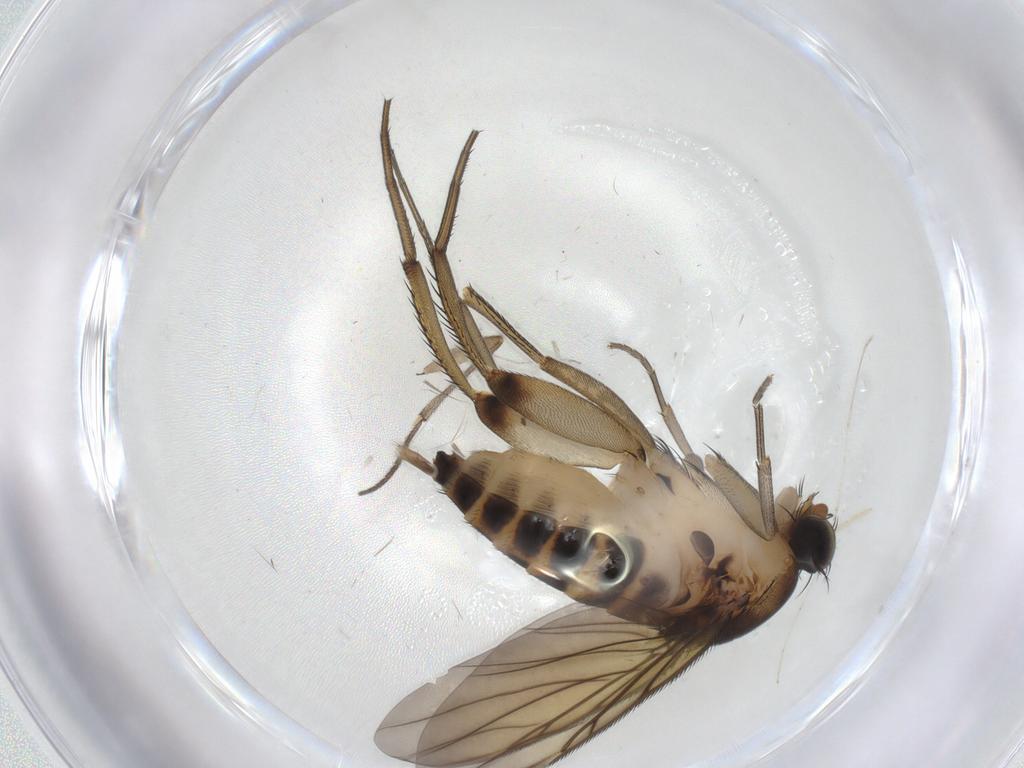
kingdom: Animalia
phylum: Arthropoda
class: Insecta
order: Diptera
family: Phoridae
